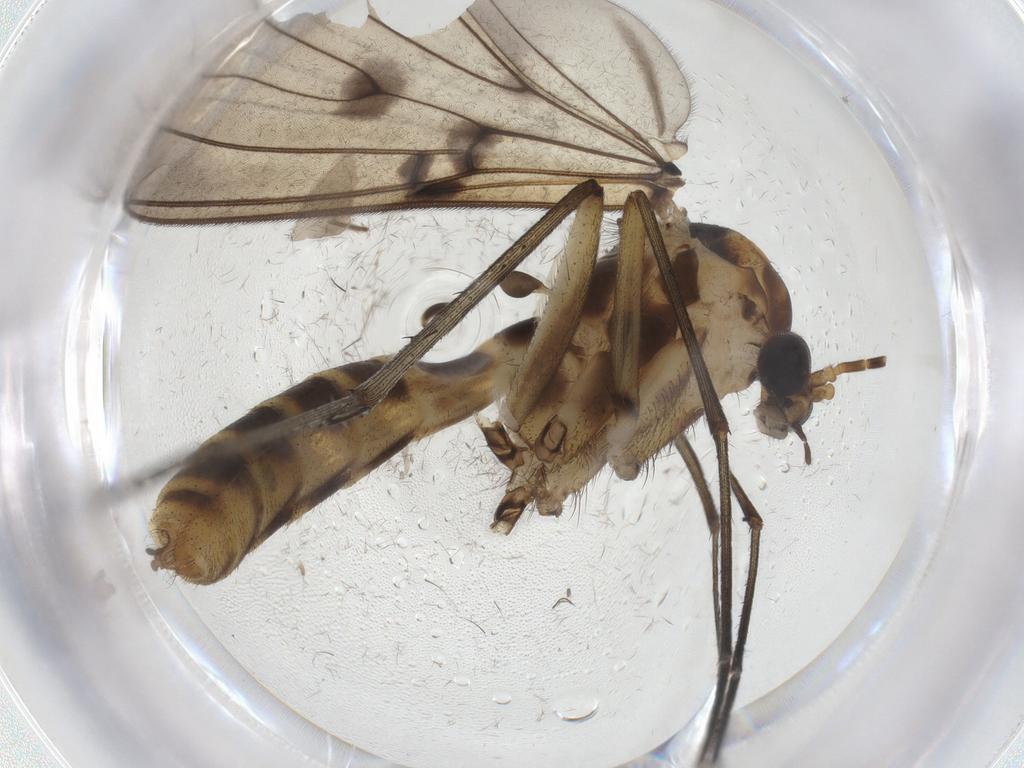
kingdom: Animalia
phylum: Arthropoda
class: Insecta
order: Diptera
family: Mycetophilidae
